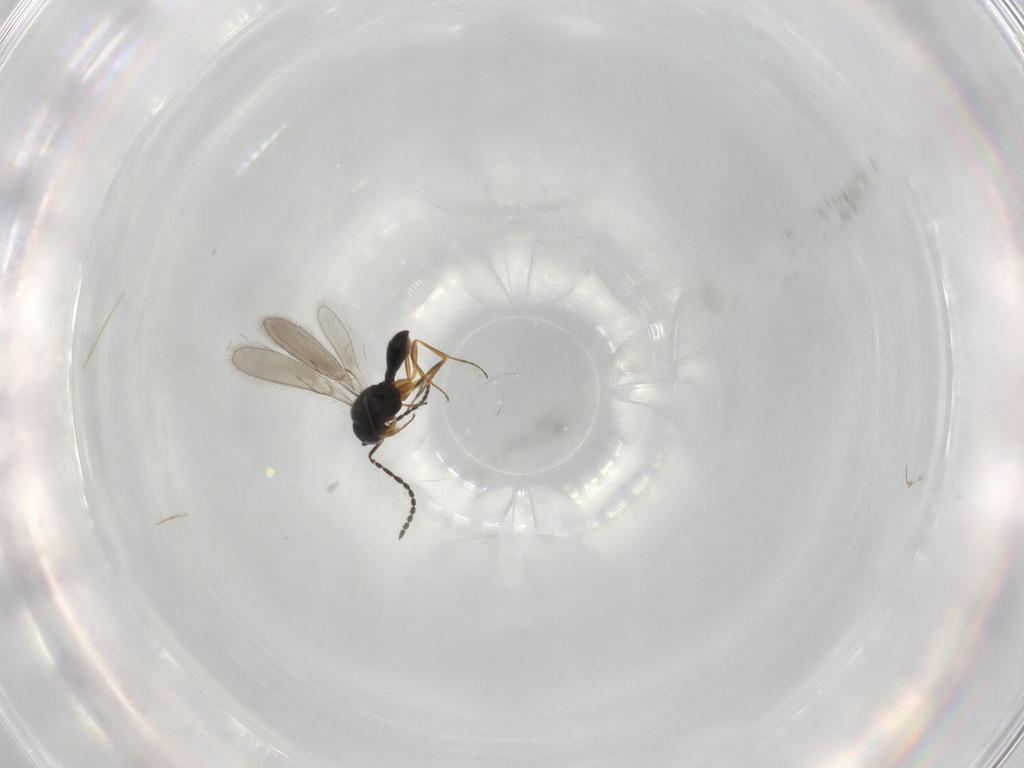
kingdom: Animalia
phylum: Arthropoda
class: Insecta
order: Hymenoptera
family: Scelionidae
